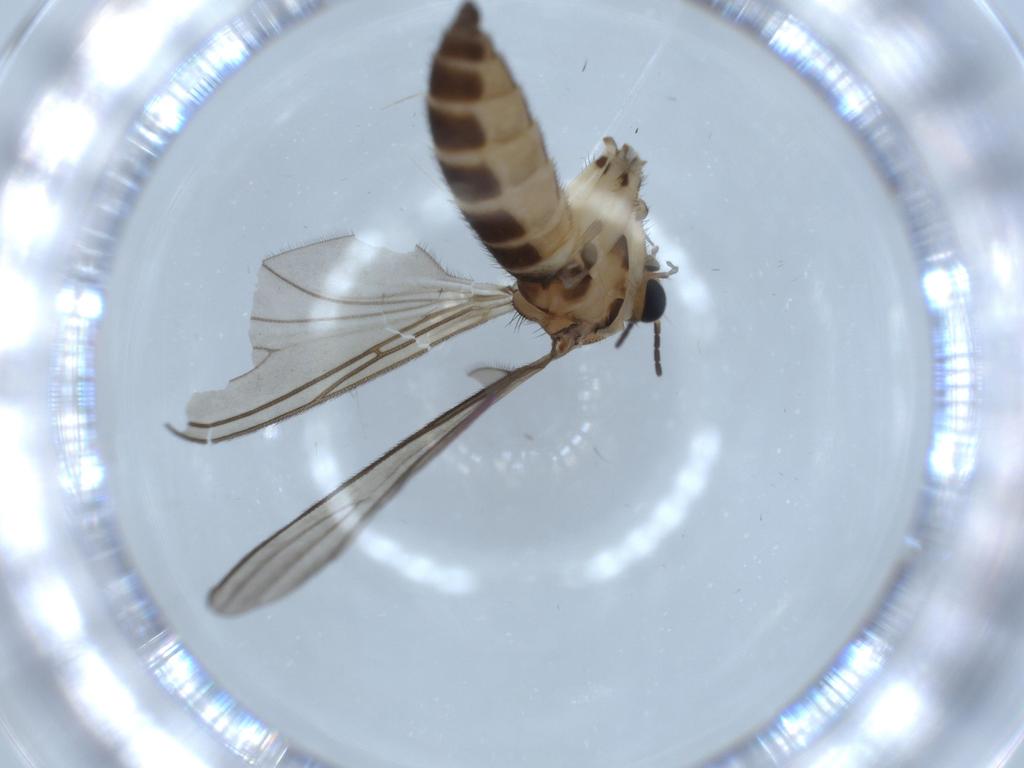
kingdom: Animalia
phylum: Arthropoda
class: Insecta
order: Diptera
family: Sciaridae
